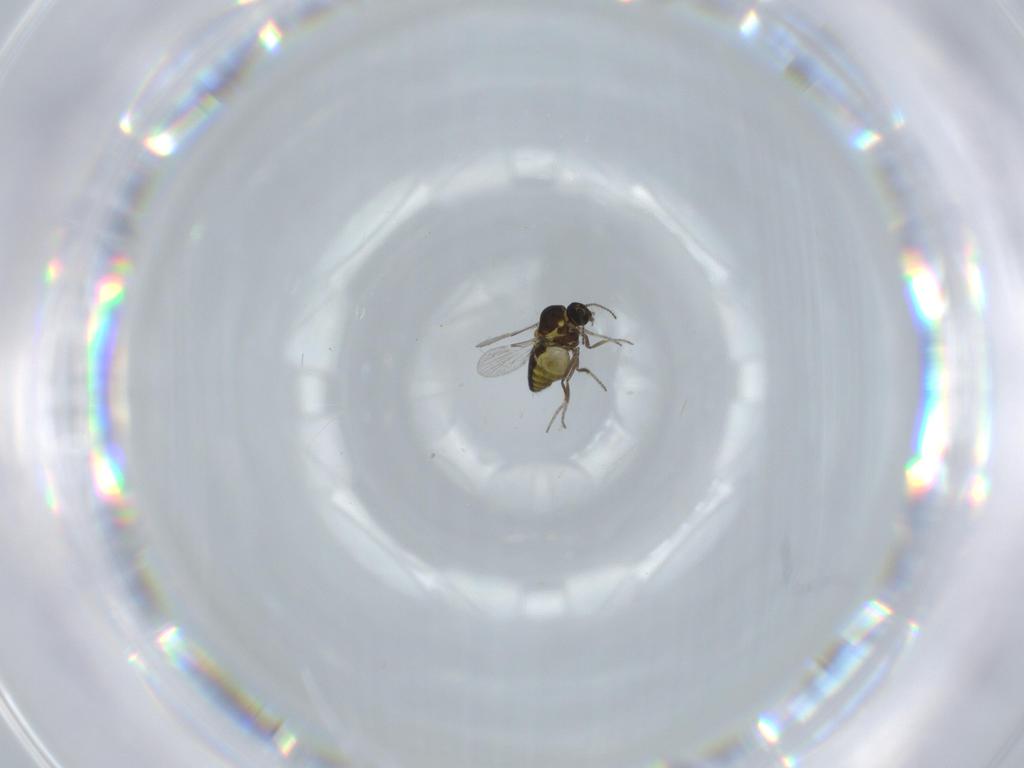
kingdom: Animalia
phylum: Arthropoda
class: Insecta
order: Diptera
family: Ceratopogonidae
